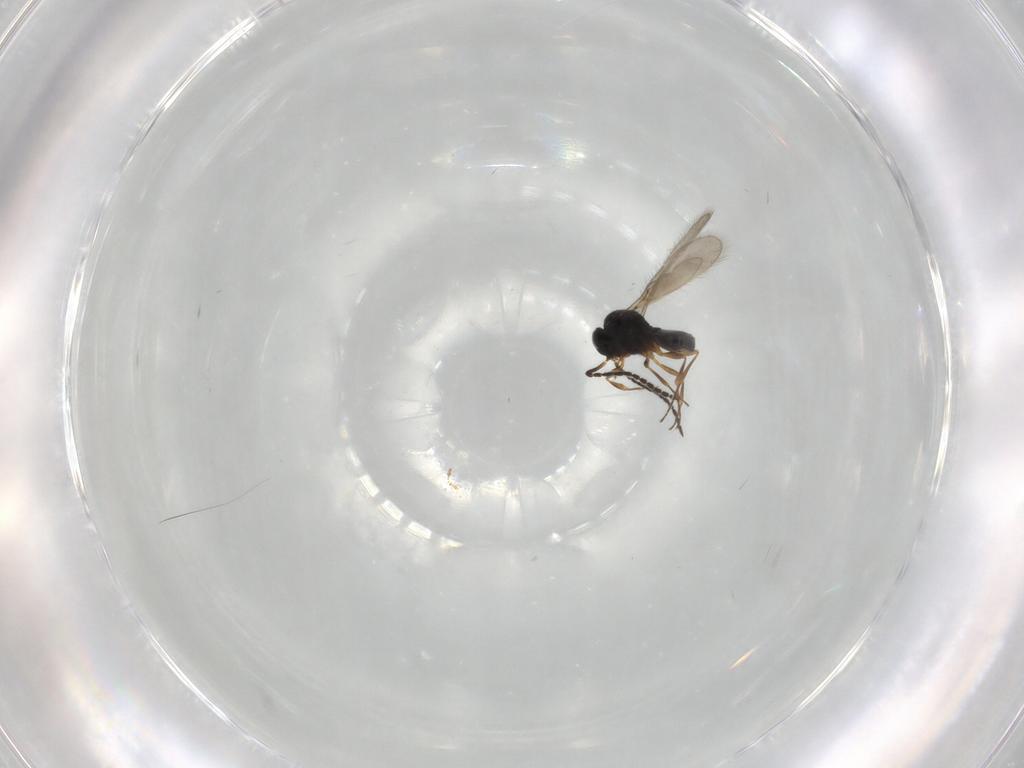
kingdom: Animalia
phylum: Arthropoda
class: Insecta
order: Hymenoptera
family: Scelionidae
